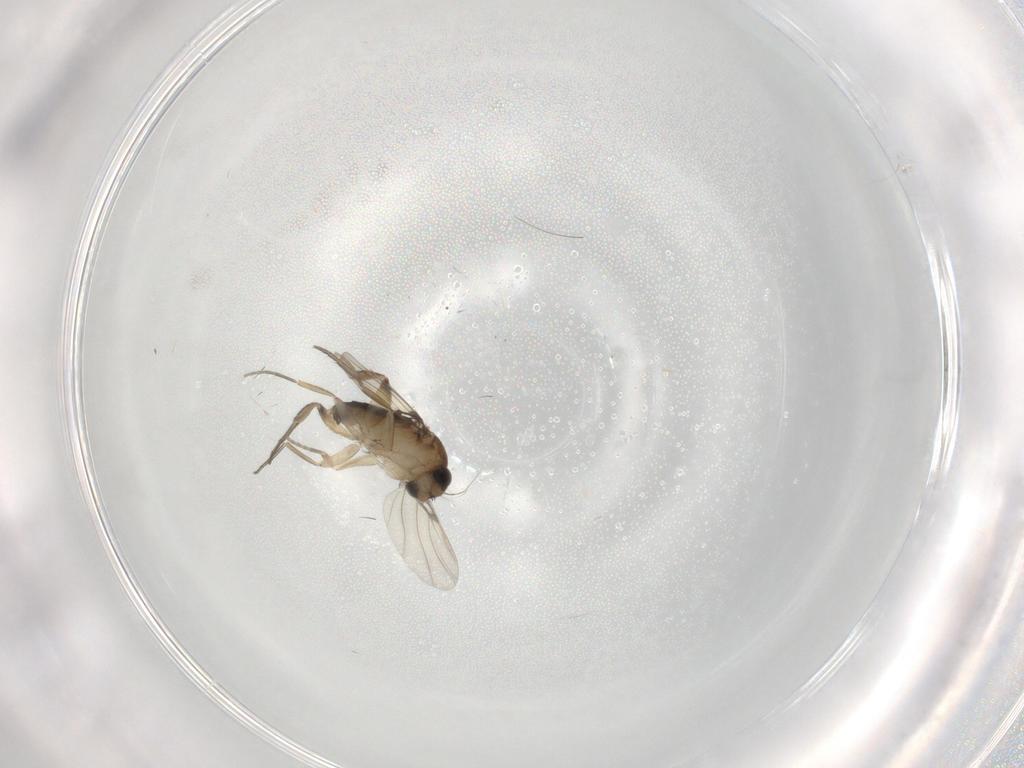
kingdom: Animalia
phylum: Arthropoda
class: Insecta
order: Diptera
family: Phoridae
